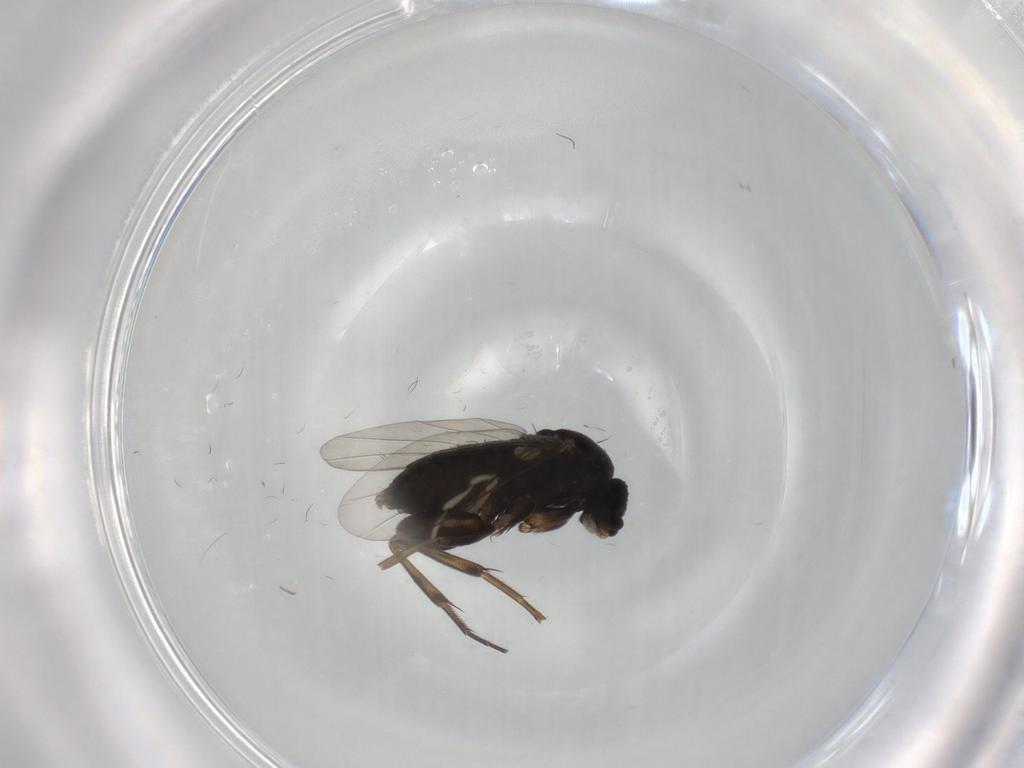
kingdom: Animalia
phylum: Arthropoda
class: Insecta
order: Diptera
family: Phoridae
